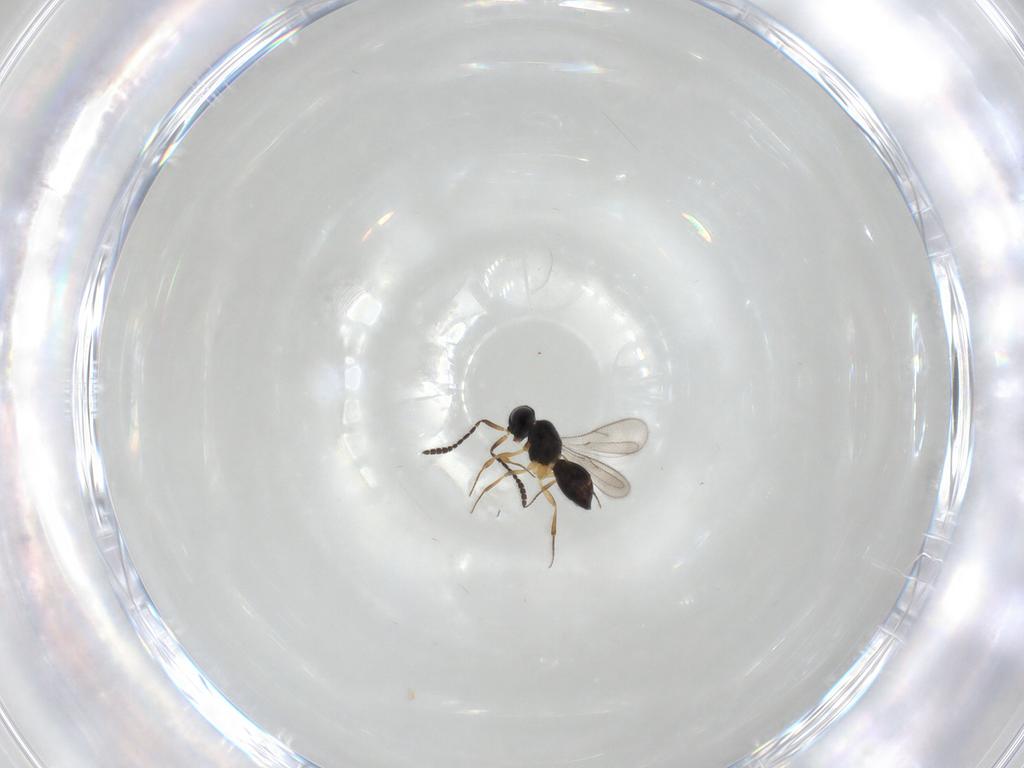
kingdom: Animalia
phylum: Arthropoda
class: Insecta
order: Hymenoptera
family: Scelionidae
